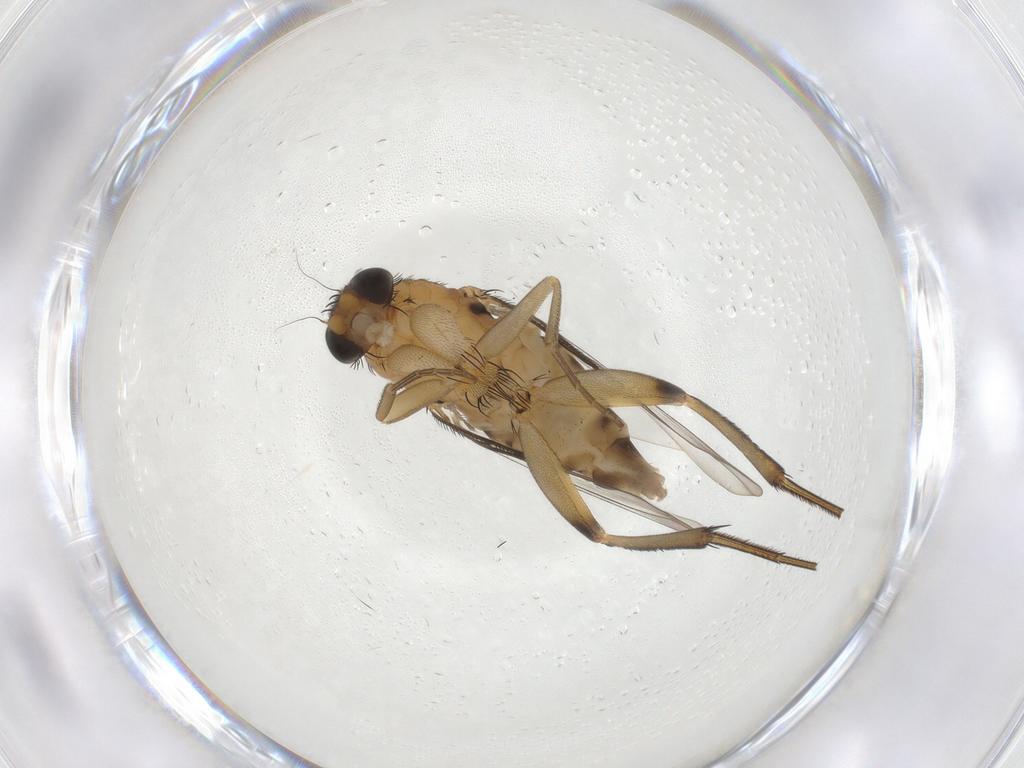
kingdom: Animalia
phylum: Arthropoda
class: Insecta
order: Diptera
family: Phoridae
